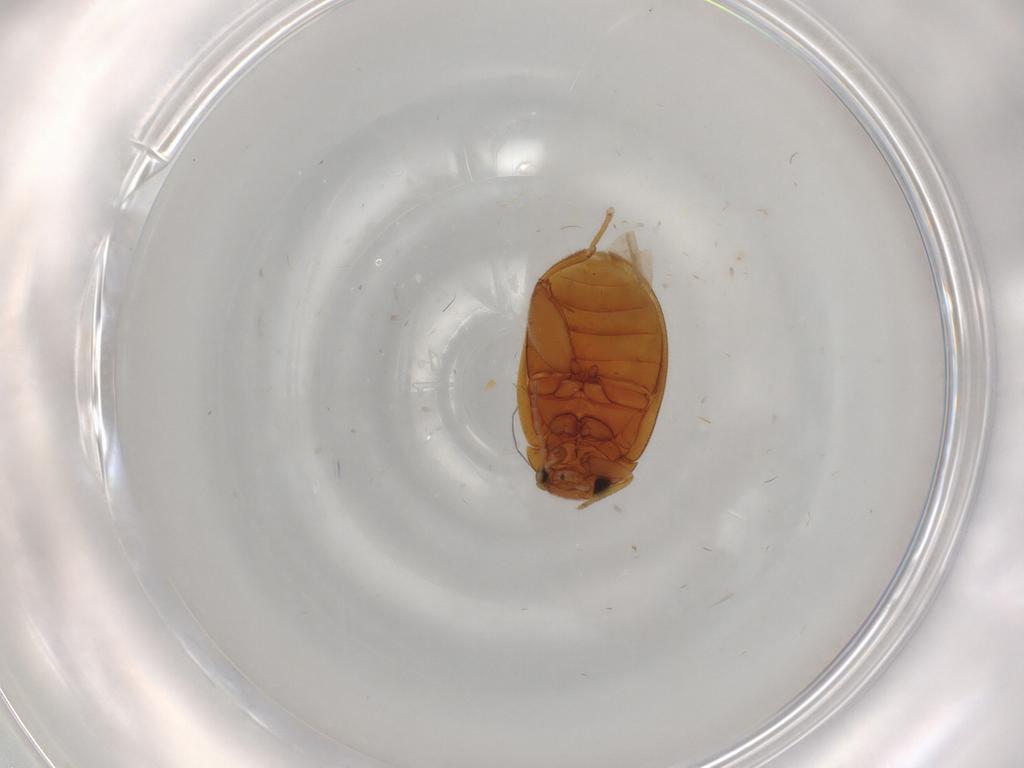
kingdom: Animalia
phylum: Arthropoda
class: Insecta
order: Coleoptera
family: Scirtidae
